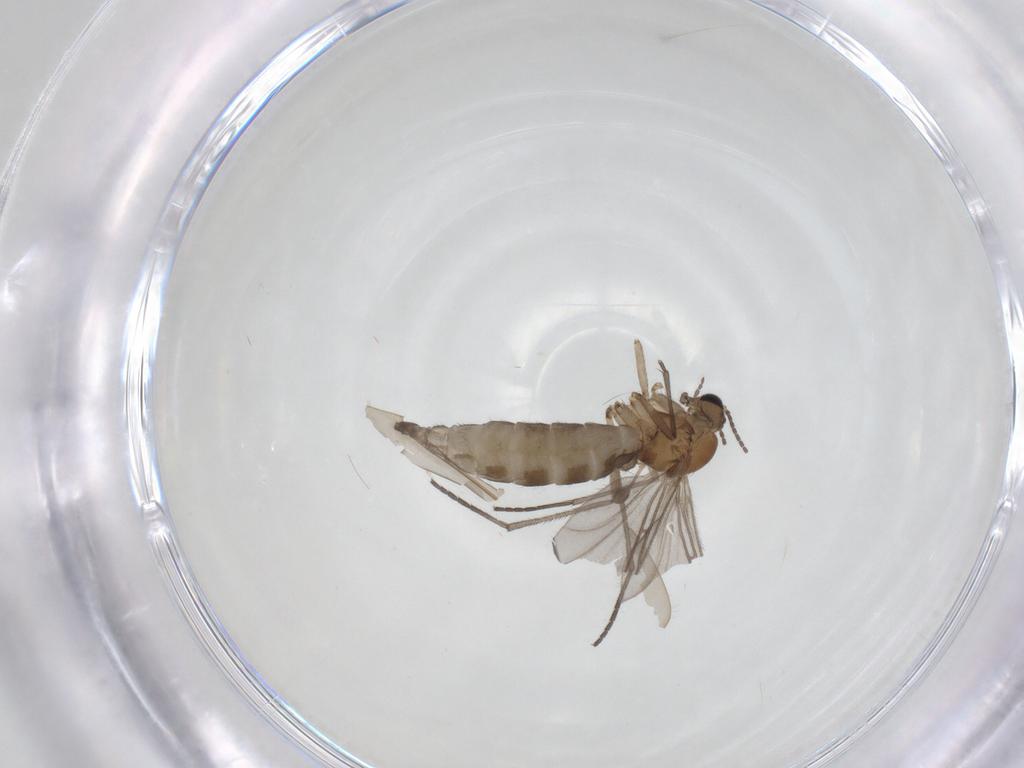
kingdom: Animalia
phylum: Arthropoda
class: Insecta
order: Diptera
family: Sciaridae
